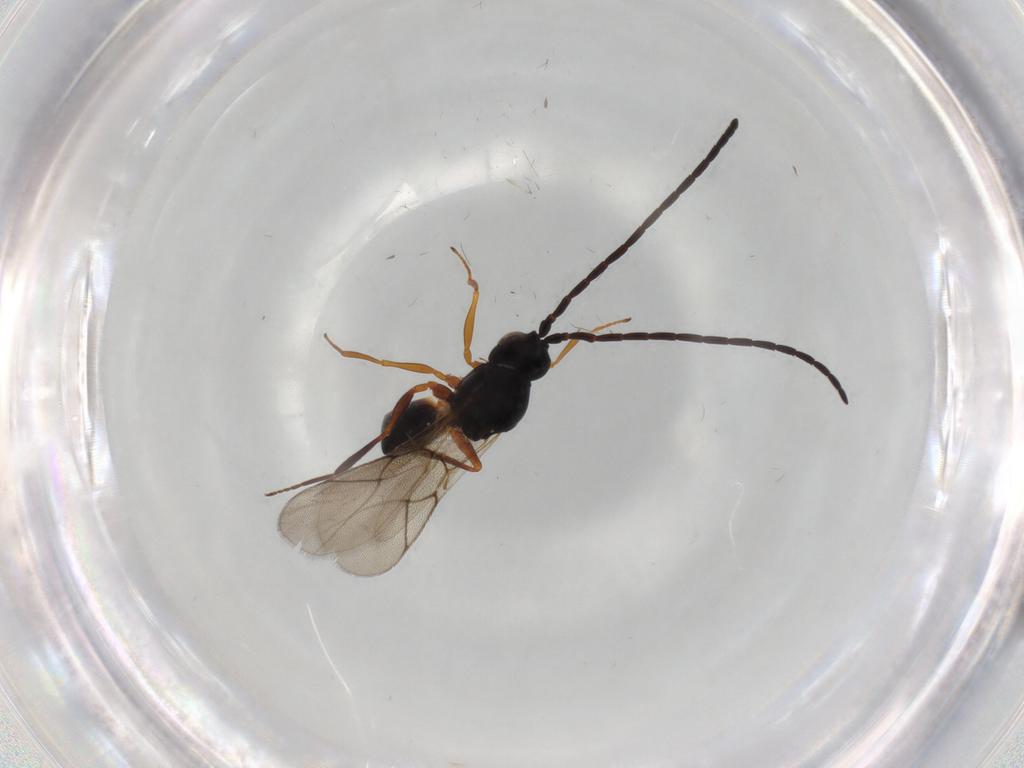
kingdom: Animalia
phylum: Arthropoda
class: Insecta
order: Hymenoptera
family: Figitidae
